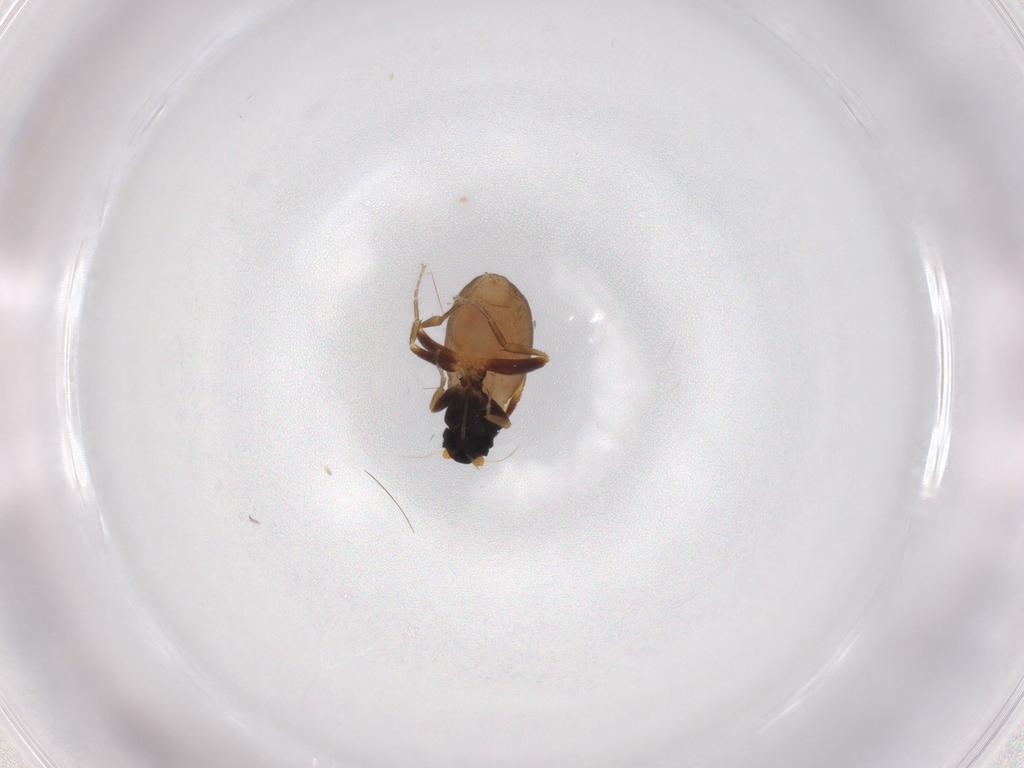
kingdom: Animalia
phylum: Arthropoda
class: Insecta
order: Diptera
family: Phoridae
